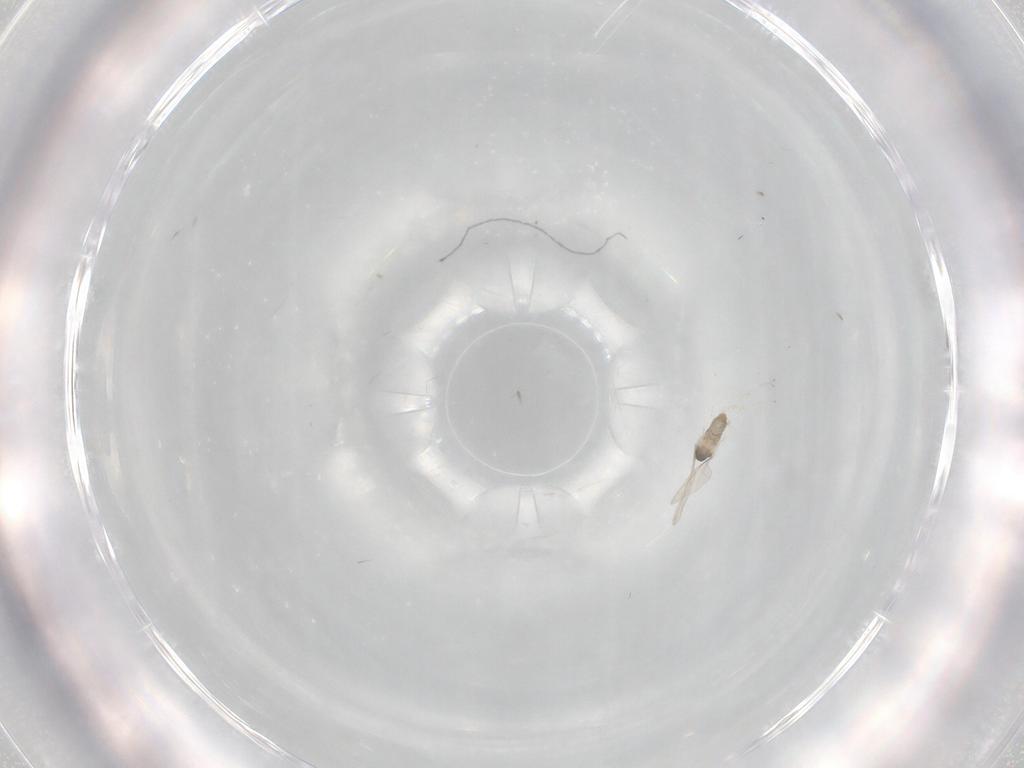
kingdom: Animalia
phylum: Arthropoda
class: Insecta
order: Diptera
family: Cecidomyiidae
